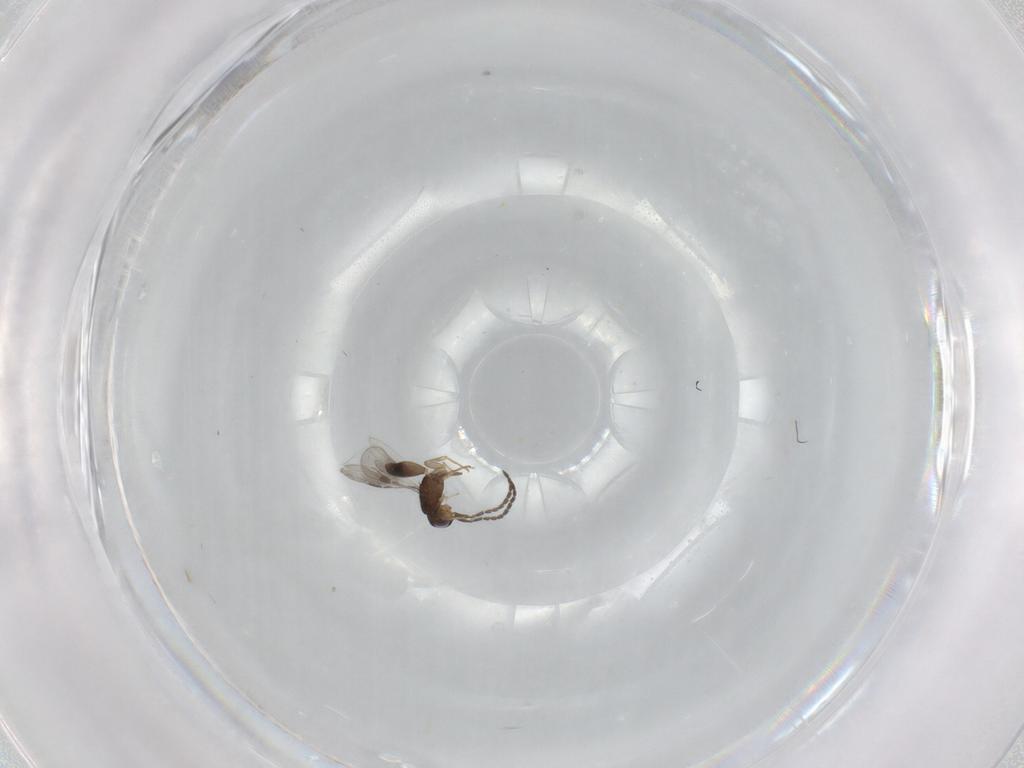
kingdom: Animalia
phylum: Arthropoda
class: Insecta
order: Hymenoptera
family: Megaspilidae
